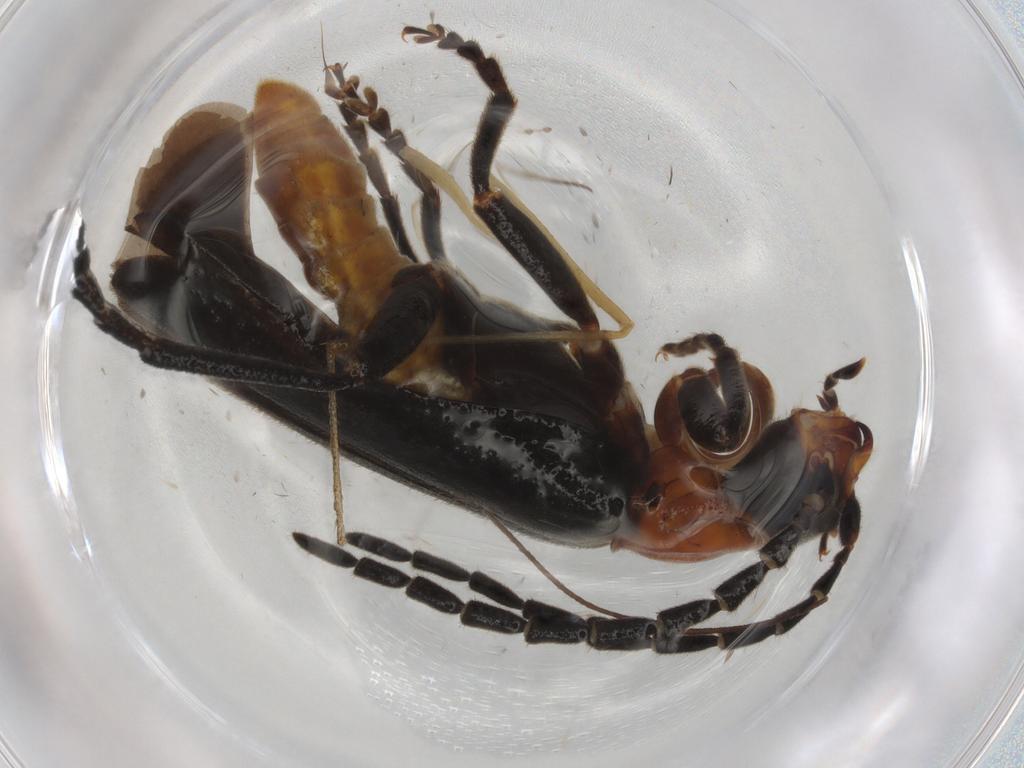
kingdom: Animalia
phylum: Arthropoda
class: Insecta
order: Coleoptera
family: Cantharidae
